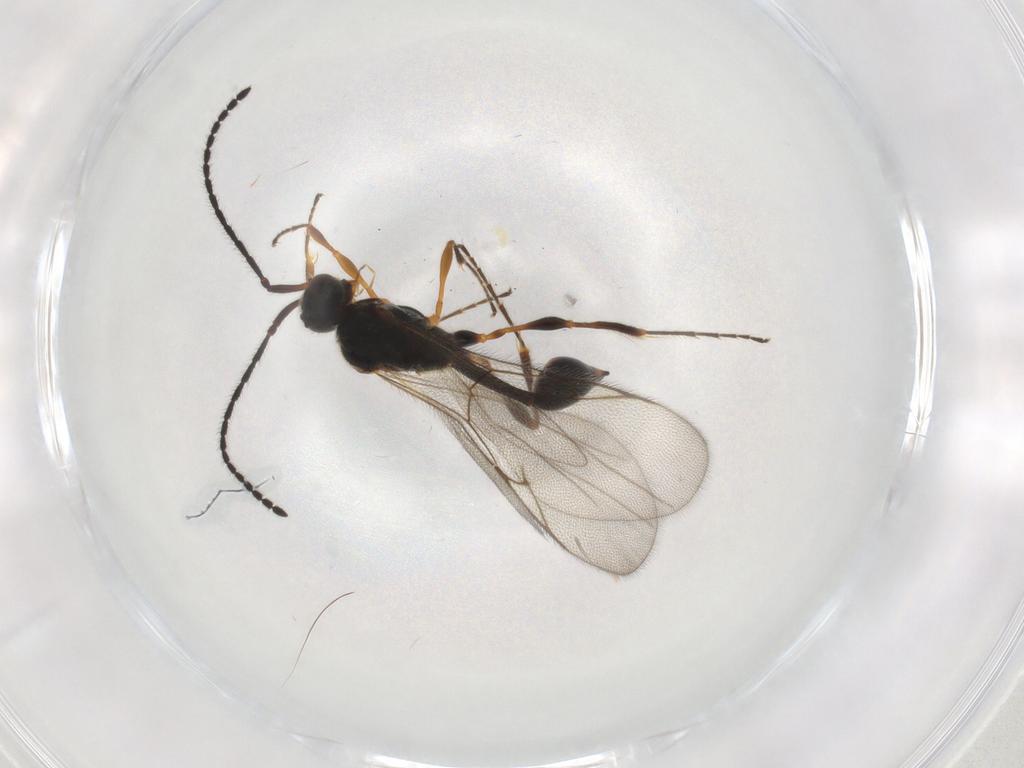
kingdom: Animalia
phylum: Arthropoda
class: Insecta
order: Hymenoptera
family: Diapriidae
